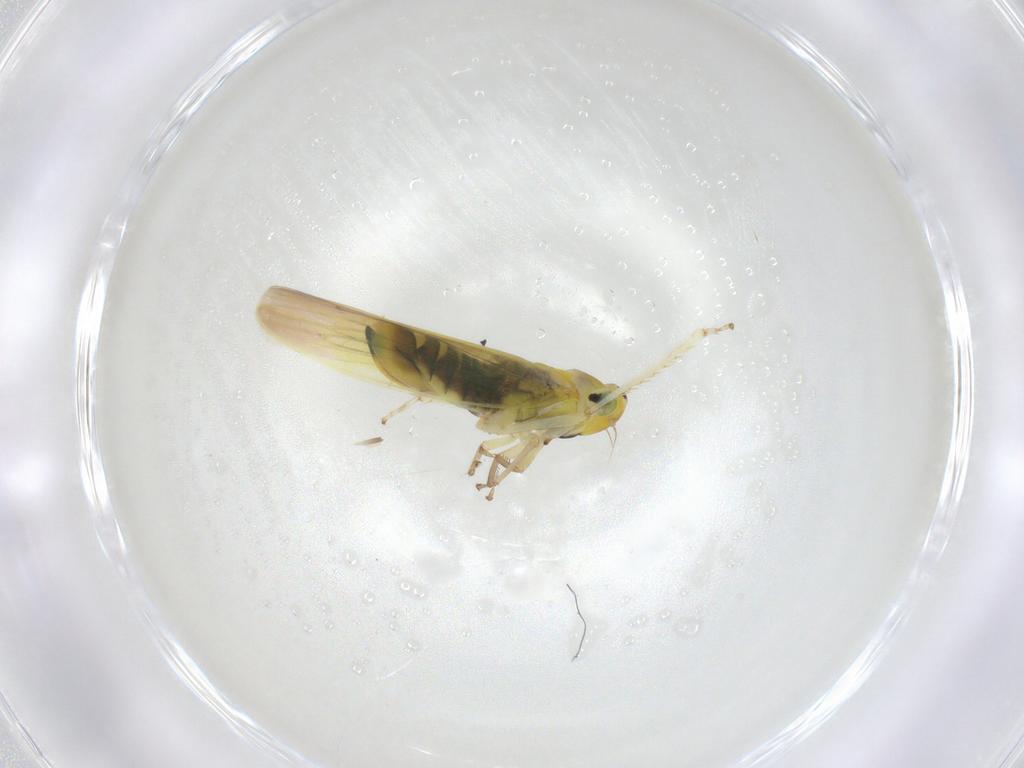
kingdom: Animalia
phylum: Arthropoda
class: Insecta
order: Hemiptera
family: Cicadellidae
